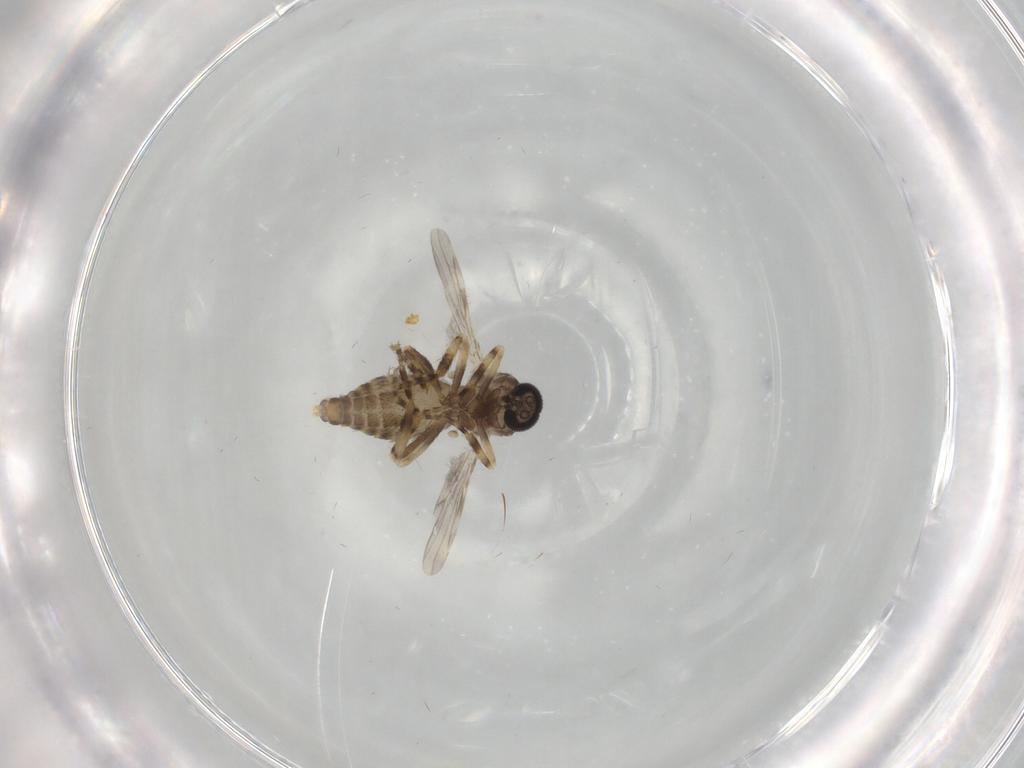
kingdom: Animalia
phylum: Arthropoda
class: Insecta
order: Diptera
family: Ceratopogonidae
